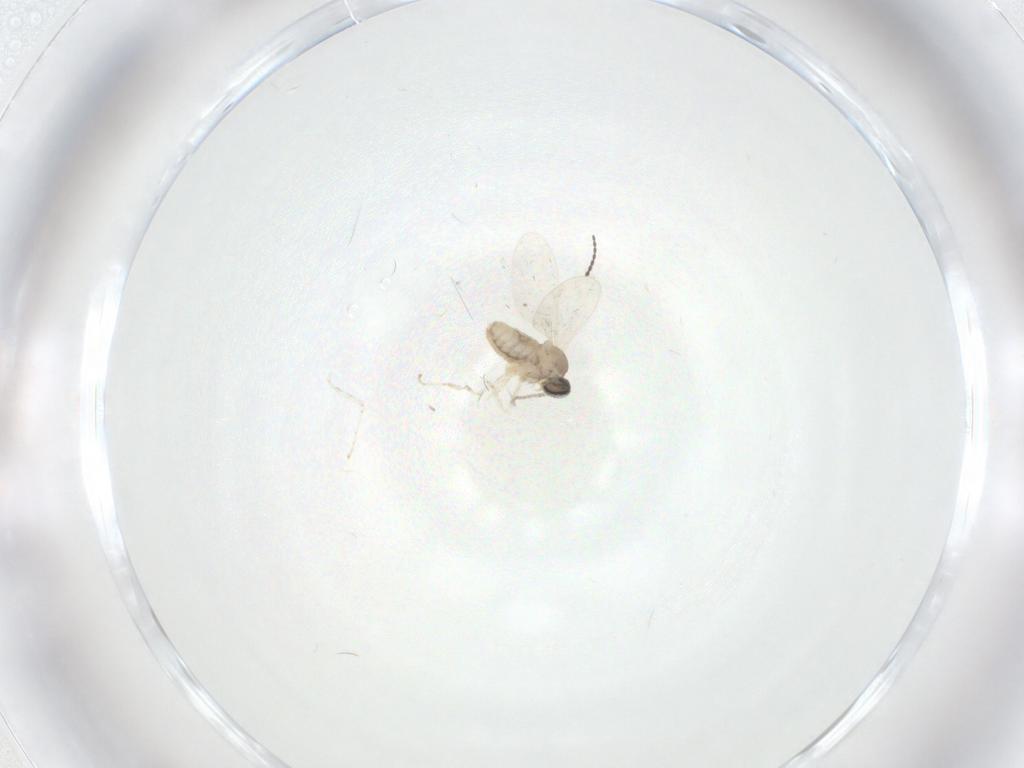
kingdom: Animalia
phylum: Arthropoda
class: Insecta
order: Diptera
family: Cecidomyiidae
